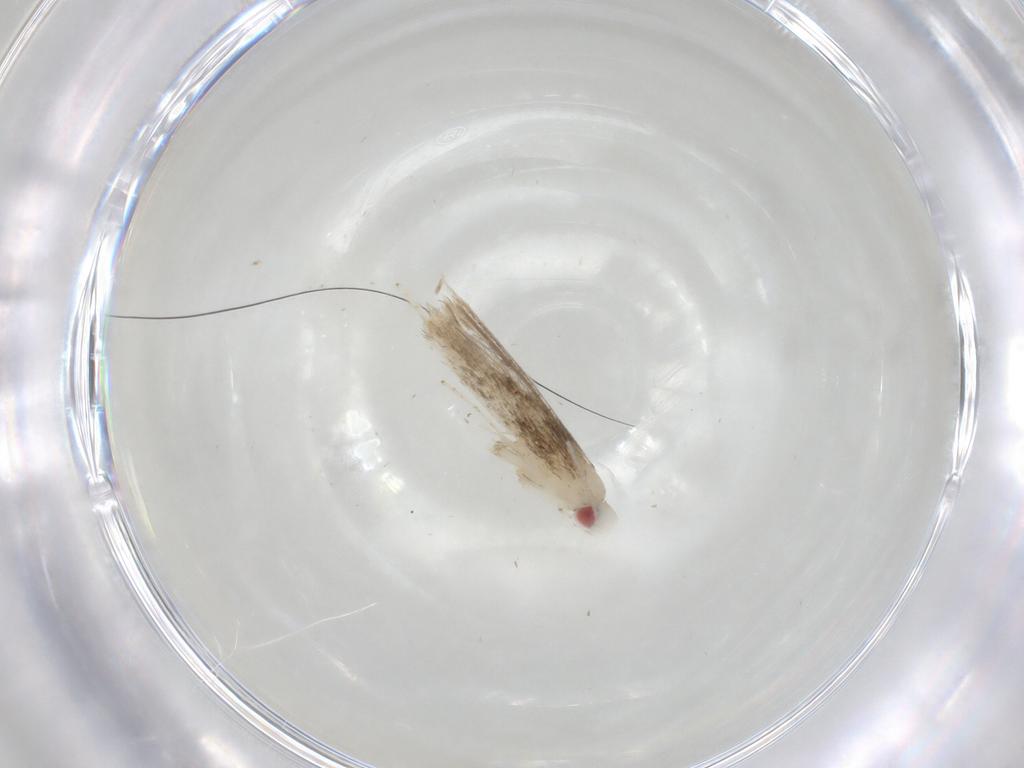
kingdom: Animalia
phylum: Arthropoda
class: Insecta
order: Lepidoptera
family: Gracillariidae
